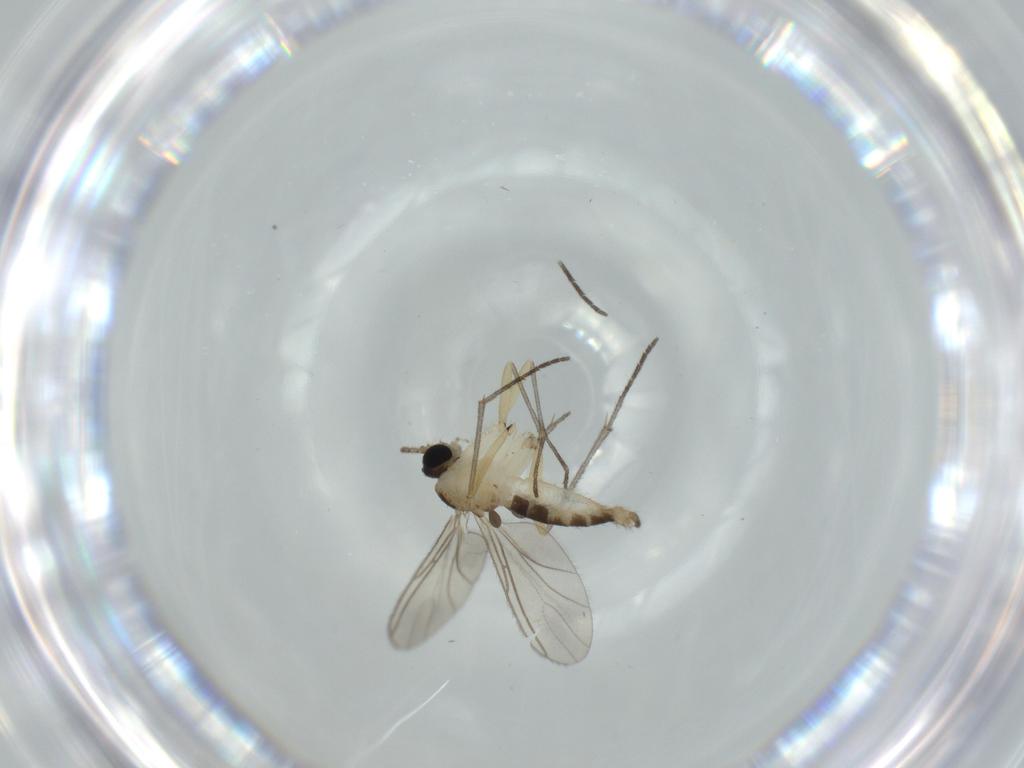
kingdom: Animalia
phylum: Arthropoda
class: Insecta
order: Diptera
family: Sciaridae
